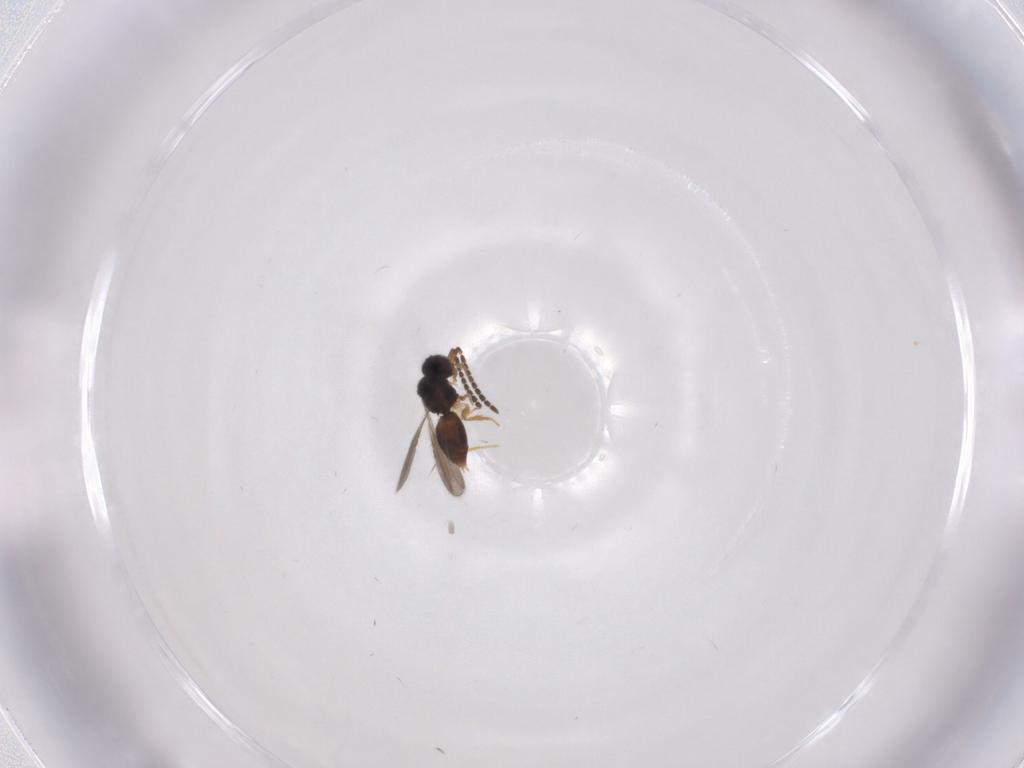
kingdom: Animalia
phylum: Arthropoda
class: Insecta
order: Hymenoptera
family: Ceraphronidae
